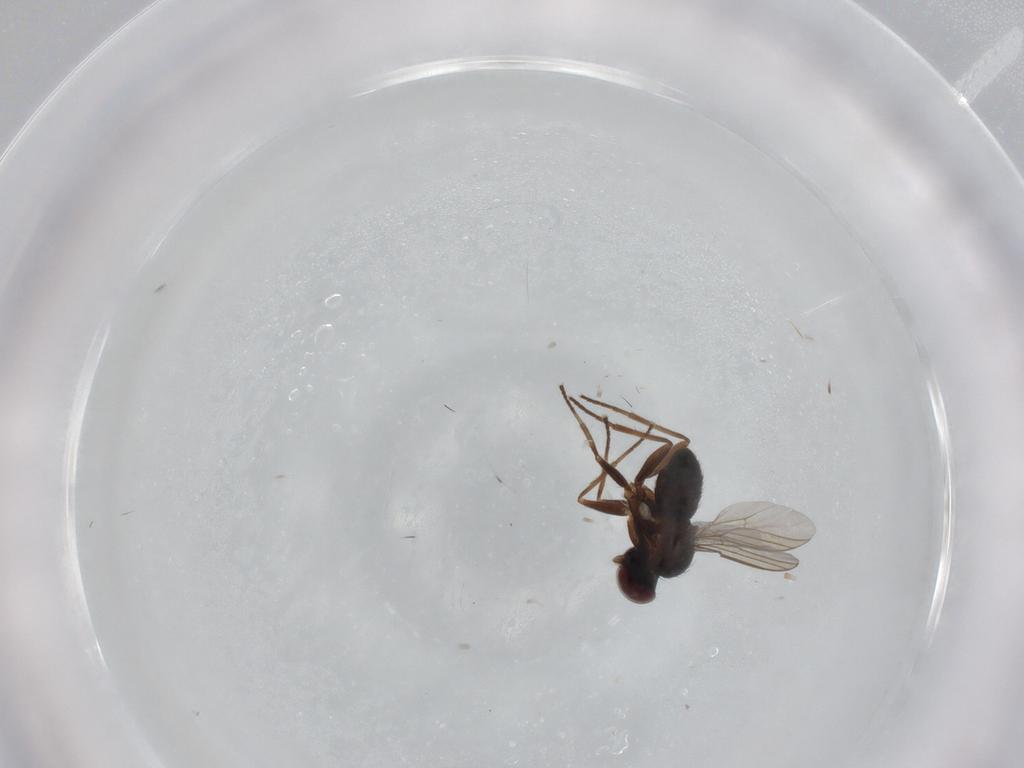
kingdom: Animalia
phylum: Arthropoda
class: Insecta
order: Diptera
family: Dolichopodidae
